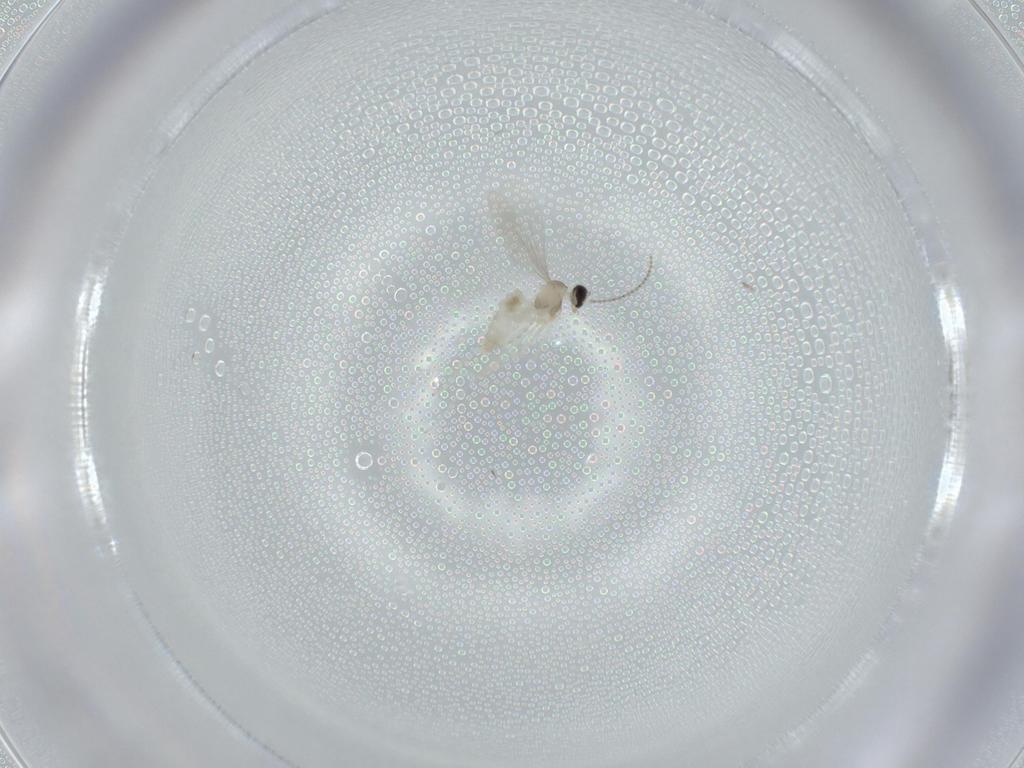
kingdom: Animalia
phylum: Arthropoda
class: Insecta
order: Diptera
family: Cecidomyiidae
